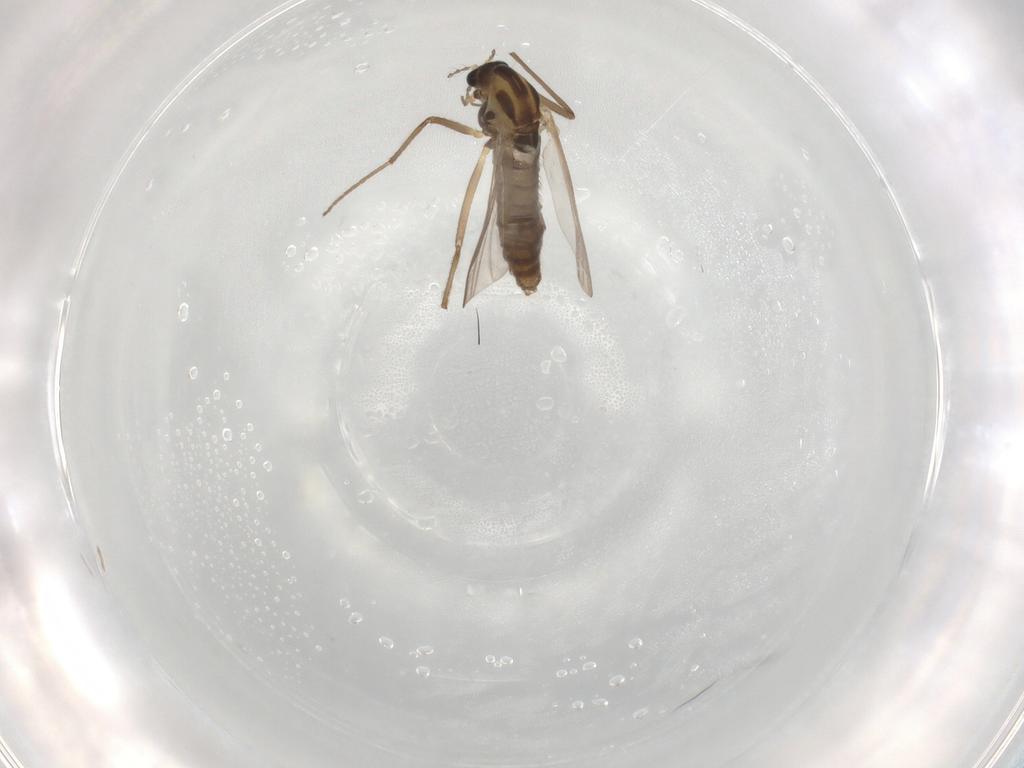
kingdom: Animalia
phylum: Arthropoda
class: Insecta
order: Diptera
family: Chironomidae
